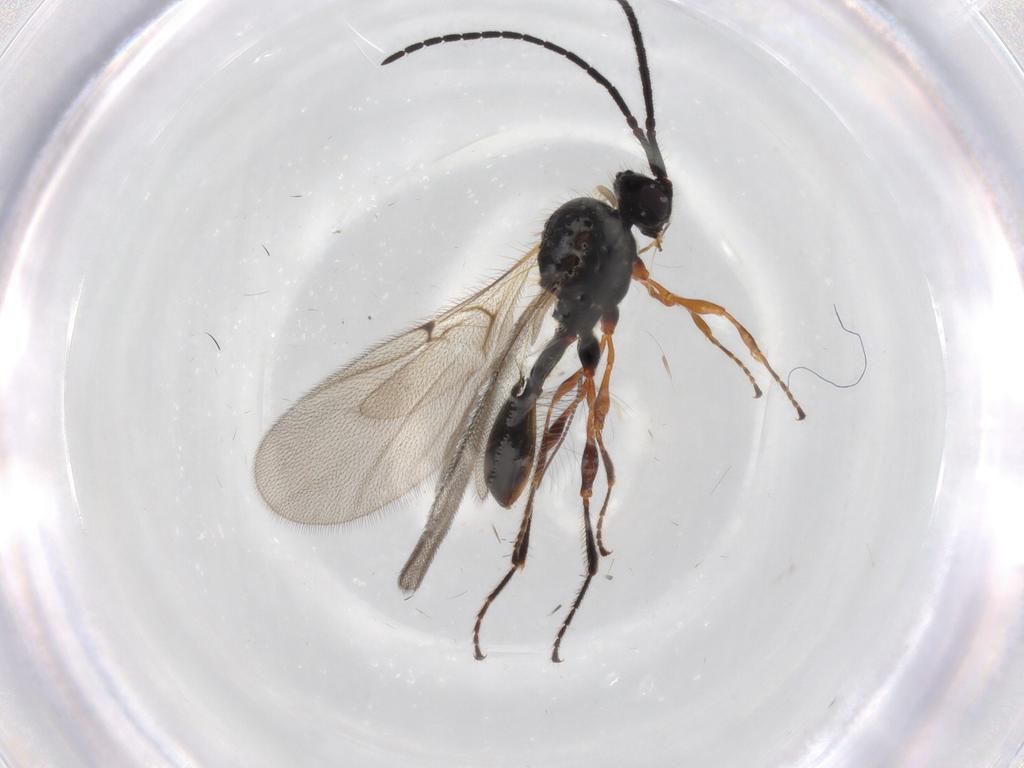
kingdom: Animalia
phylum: Arthropoda
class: Insecta
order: Hymenoptera
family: Diapriidae
